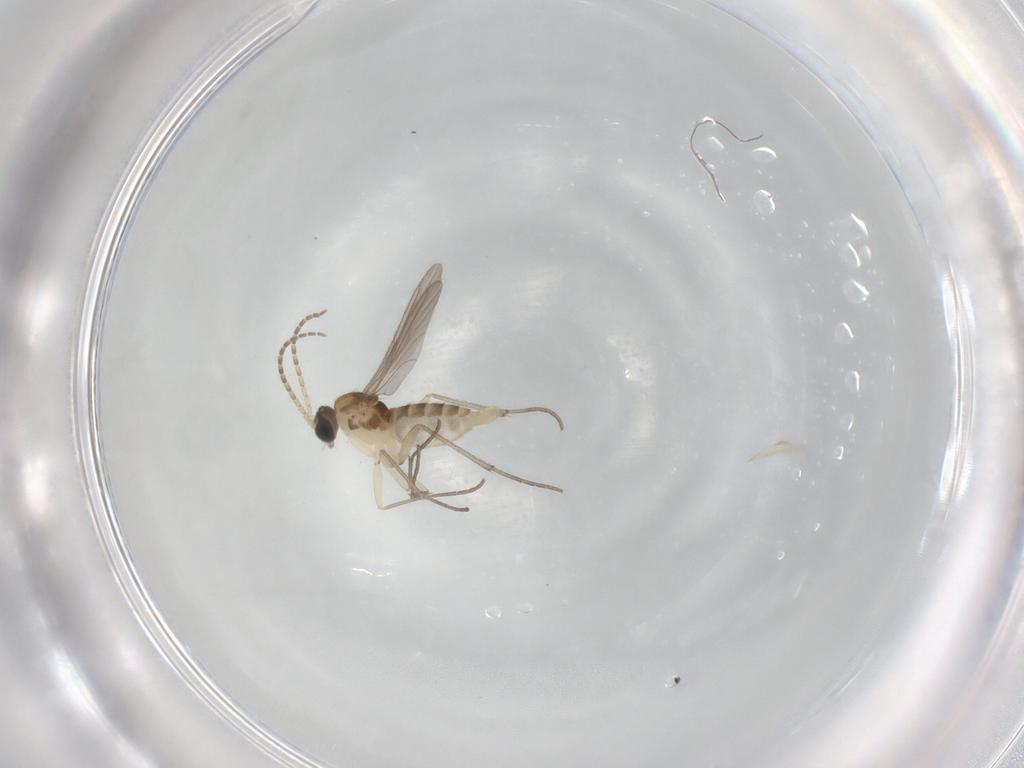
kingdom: Animalia
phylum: Arthropoda
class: Insecta
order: Diptera
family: Sciaridae
